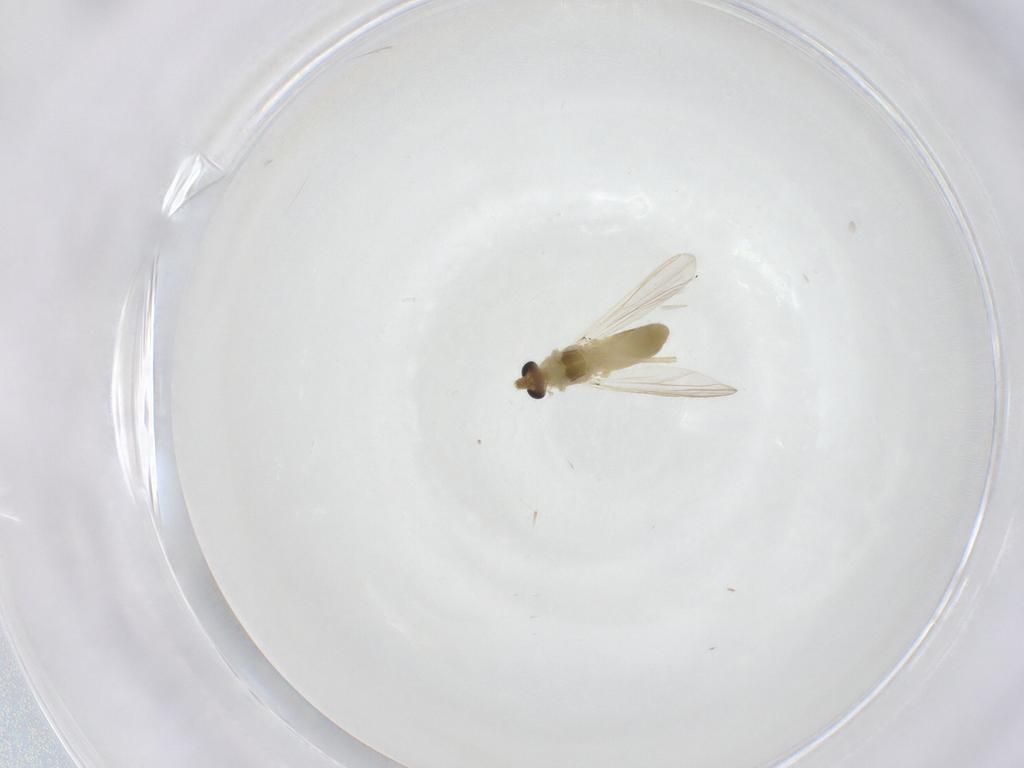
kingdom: Animalia
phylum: Arthropoda
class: Insecta
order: Diptera
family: Chironomidae
